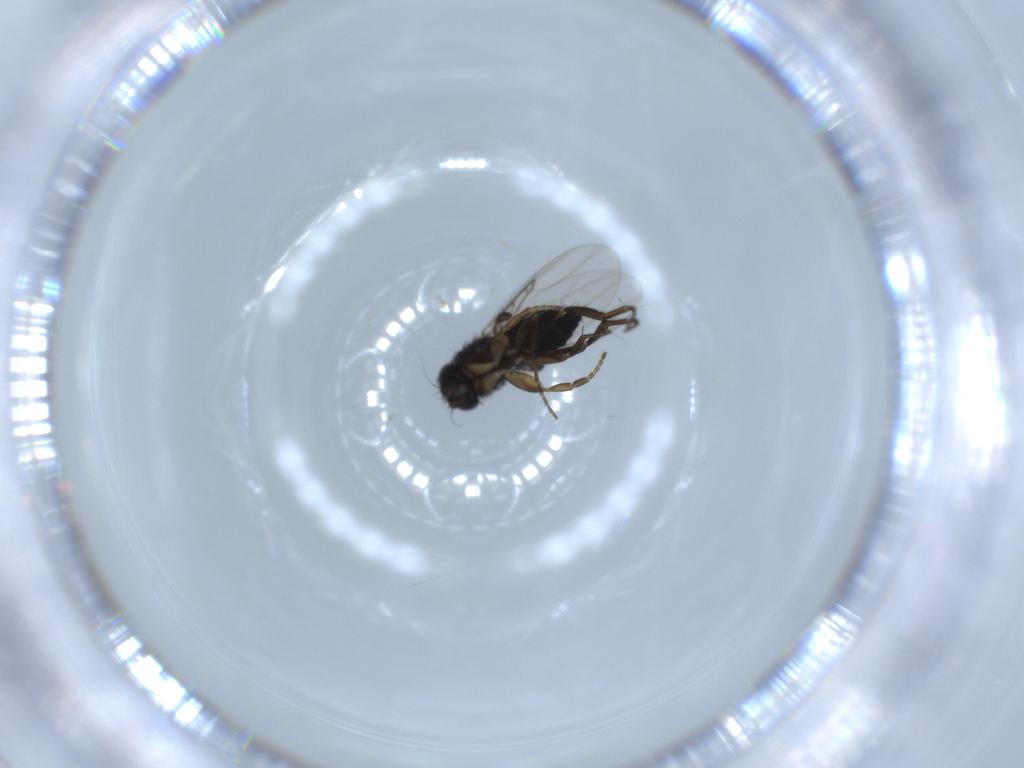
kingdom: Animalia
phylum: Arthropoda
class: Insecta
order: Diptera
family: Phoridae
